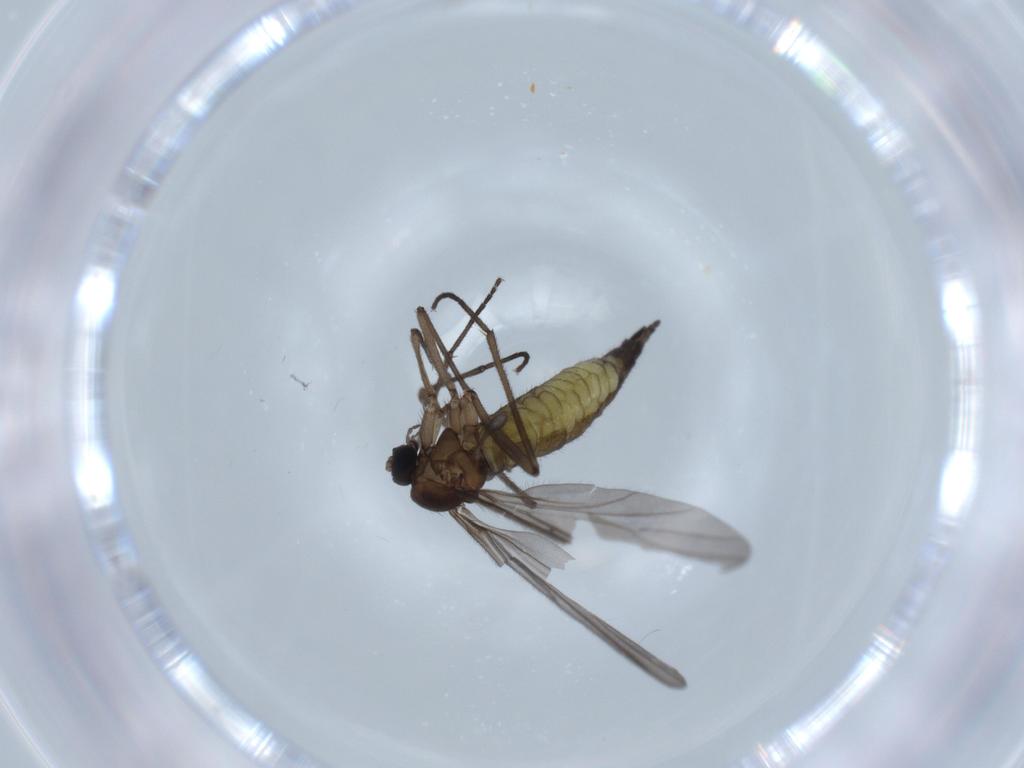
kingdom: Animalia
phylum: Arthropoda
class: Insecta
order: Diptera
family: Sciaridae
